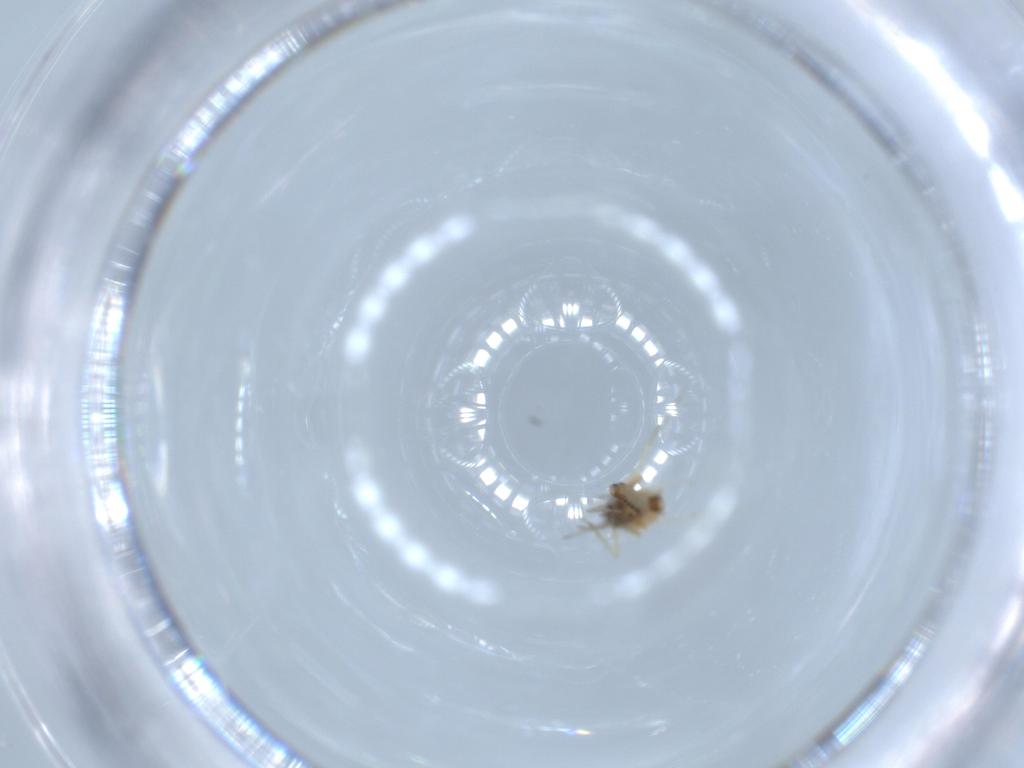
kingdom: Animalia
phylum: Arthropoda
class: Insecta
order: Diptera
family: Ceratopogonidae
